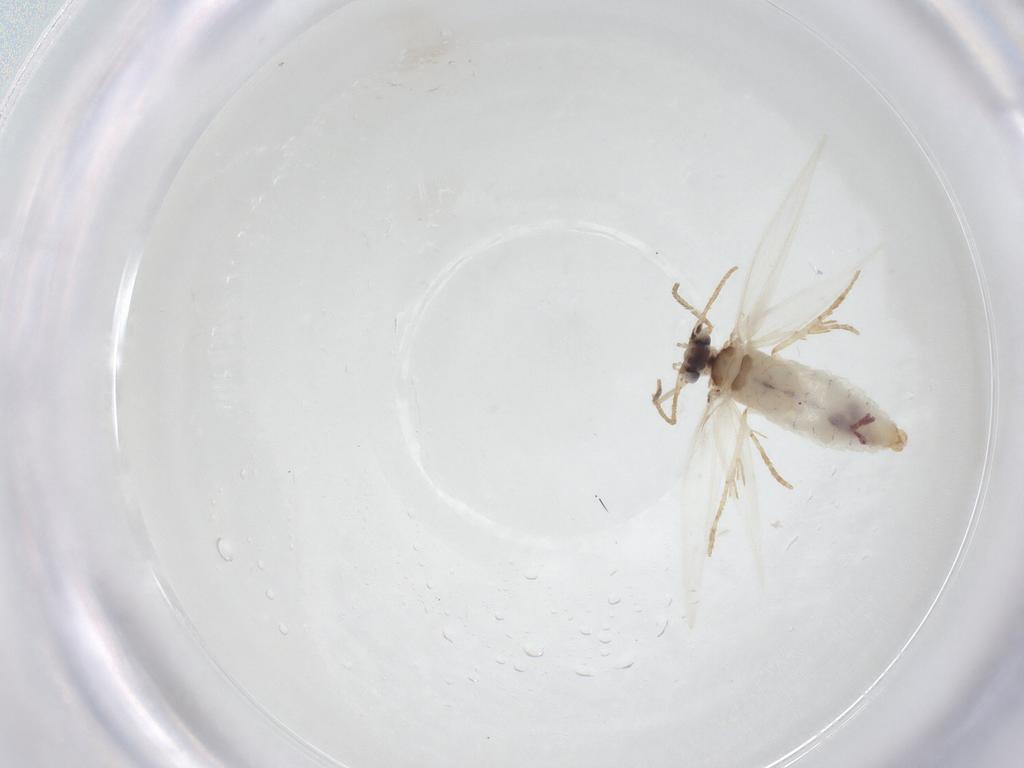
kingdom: Animalia
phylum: Arthropoda
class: Insecta
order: Lepidoptera
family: Nepticulidae
